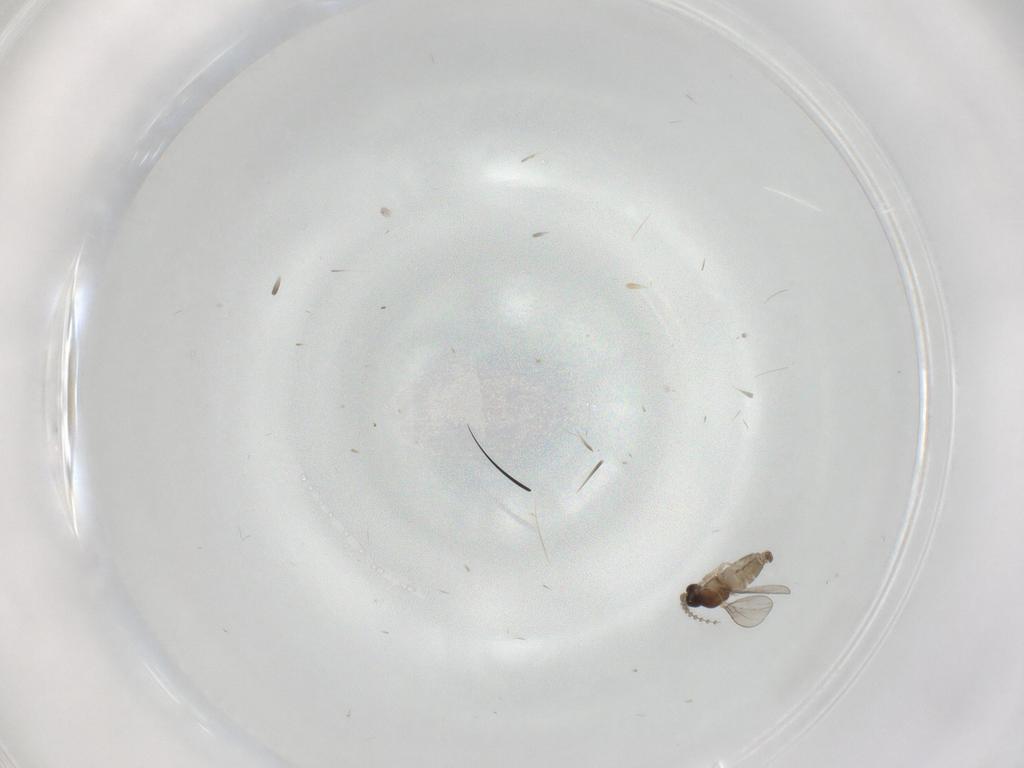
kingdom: Animalia
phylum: Arthropoda
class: Insecta
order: Diptera
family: Cecidomyiidae
